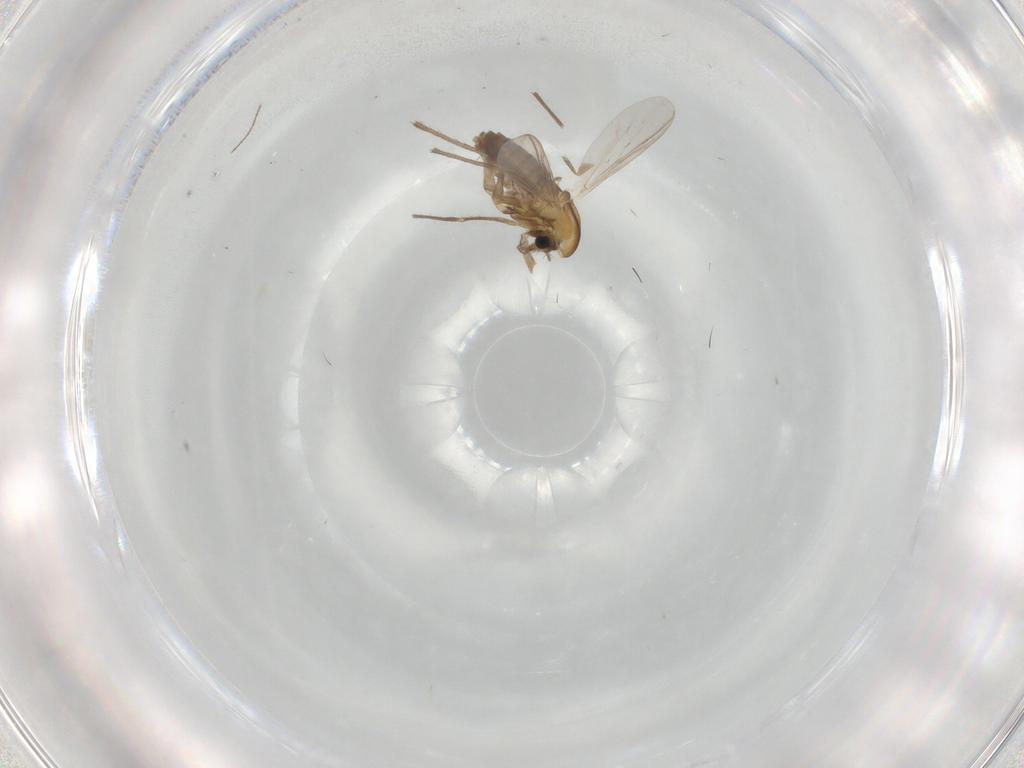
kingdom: Animalia
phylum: Arthropoda
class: Insecta
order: Diptera
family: Chironomidae
